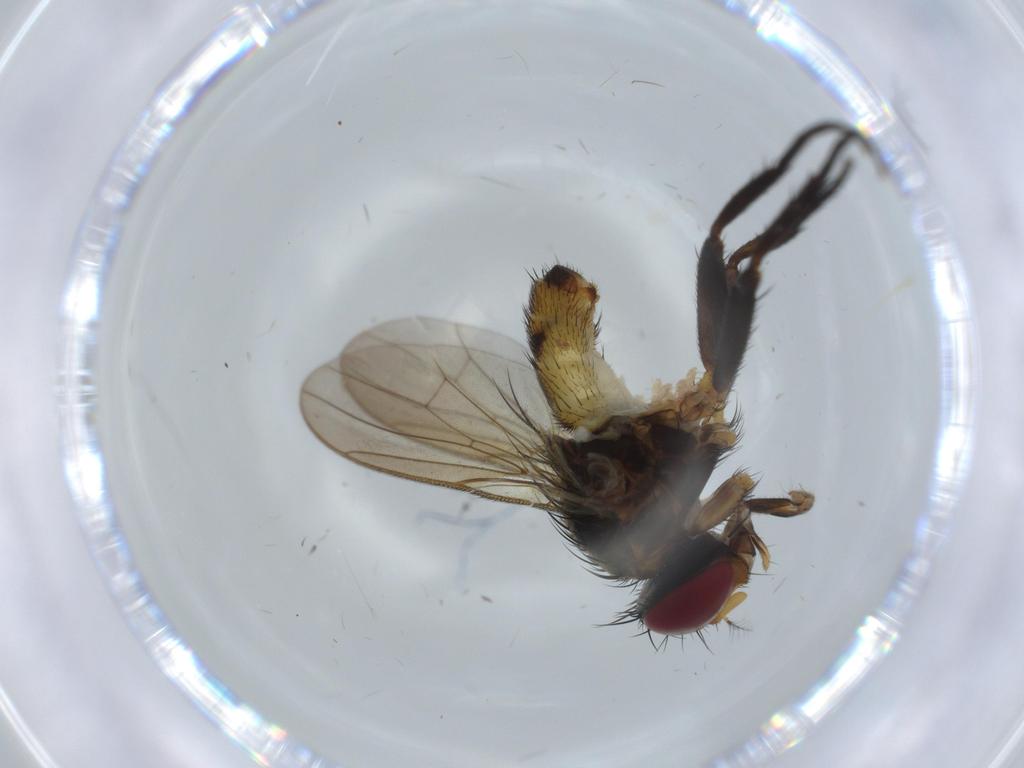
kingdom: Animalia
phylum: Arthropoda
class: Insecta
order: Diptera
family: Anthomyiidae
